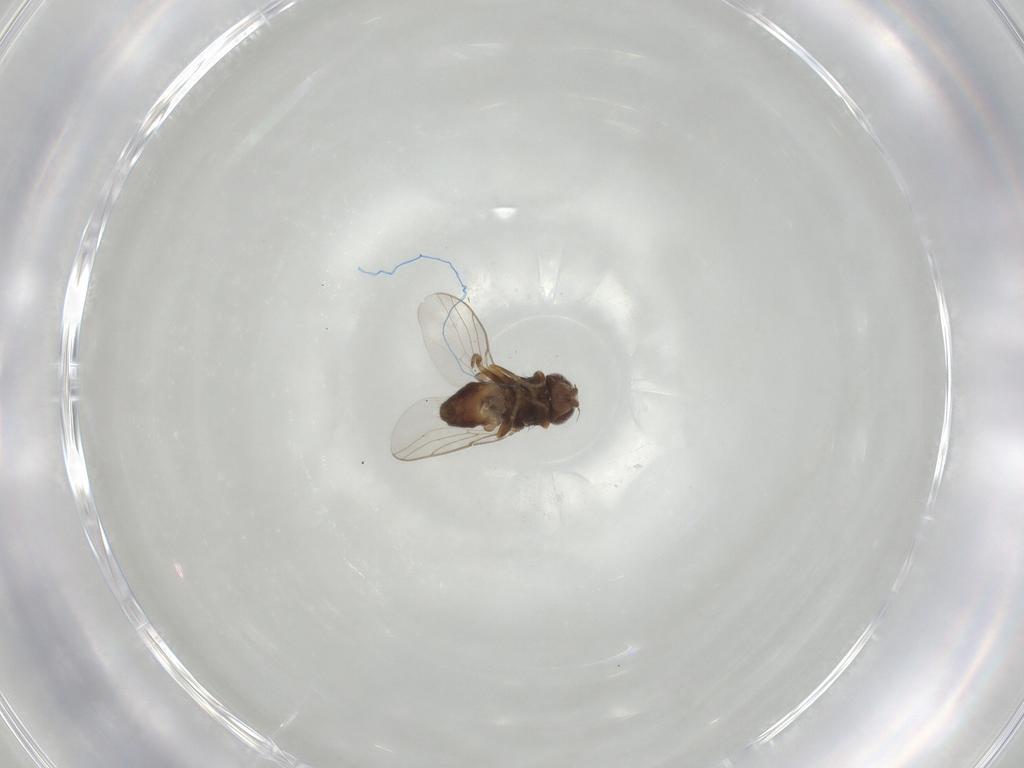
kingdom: Animalia
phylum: Arthropoda
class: Insecta
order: Diptera
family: Chloropidae
